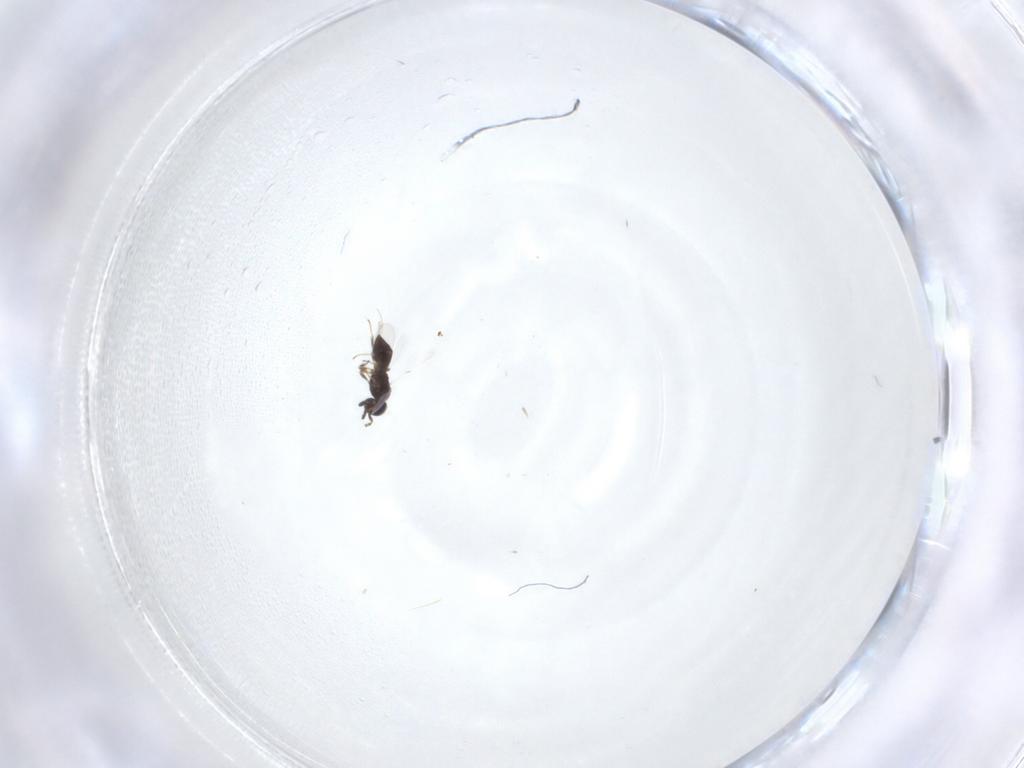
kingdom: Animalia
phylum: Arthropoda
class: Insecta
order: Hymenoptera
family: Scelionidae
